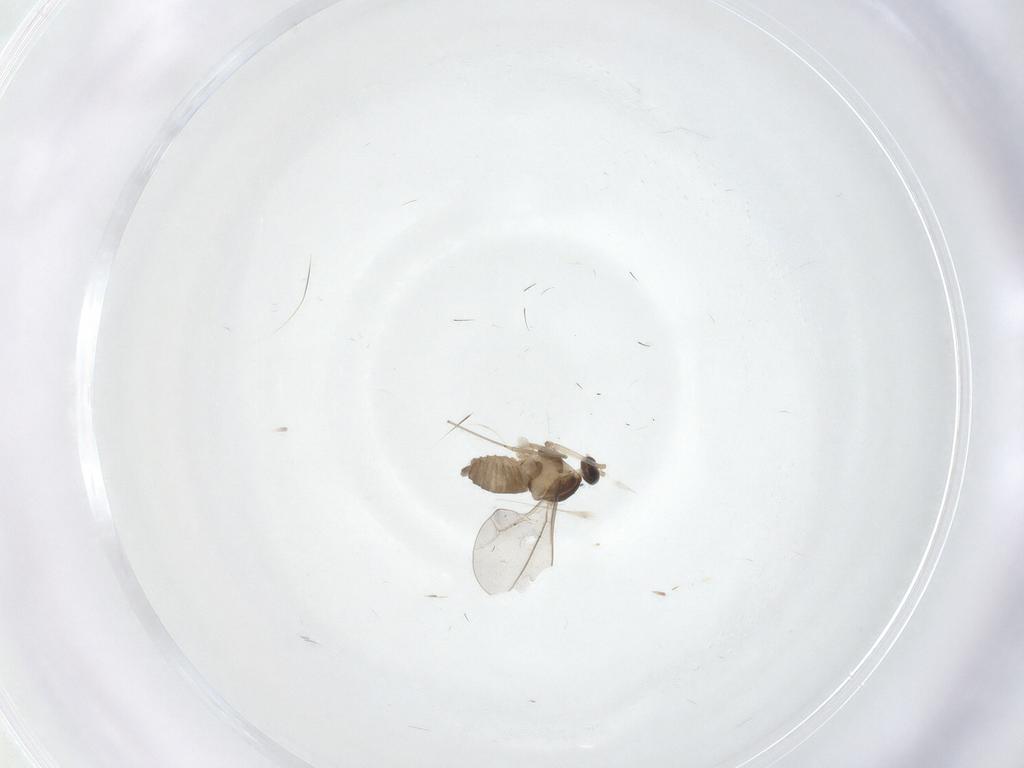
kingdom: Animalia
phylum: Arthropoda
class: Insecta
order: Diptera
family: Cecidomyiidae
